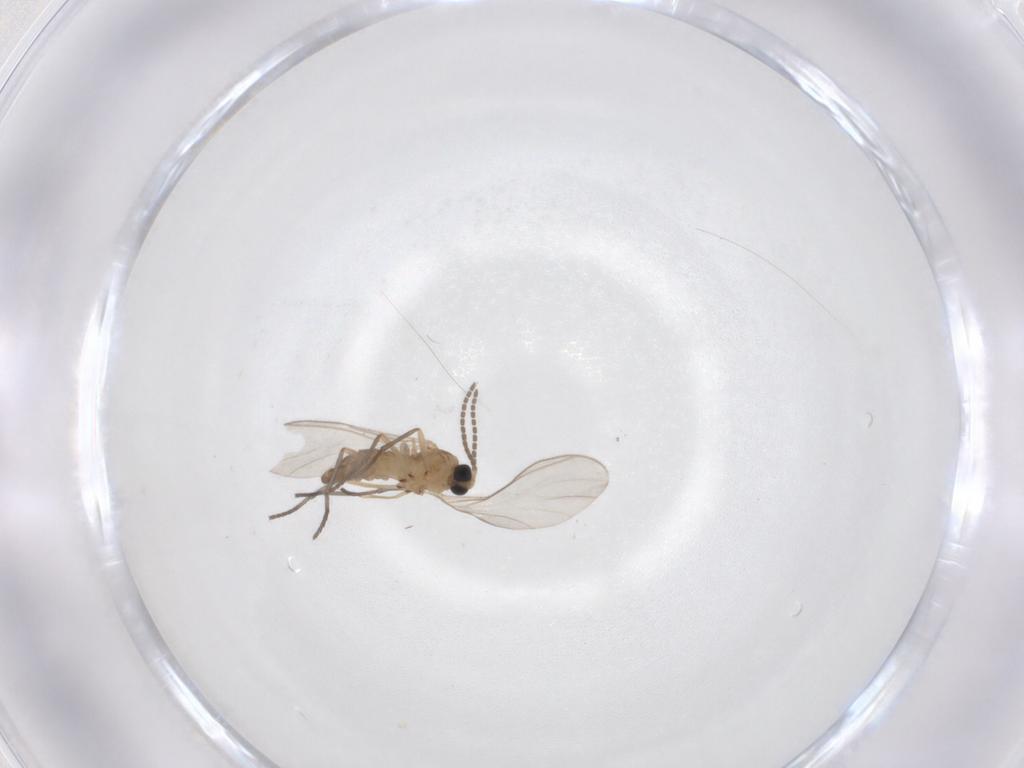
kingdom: Animalia
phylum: Arthropoda
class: Insecta
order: Diptera
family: Sciaridae
